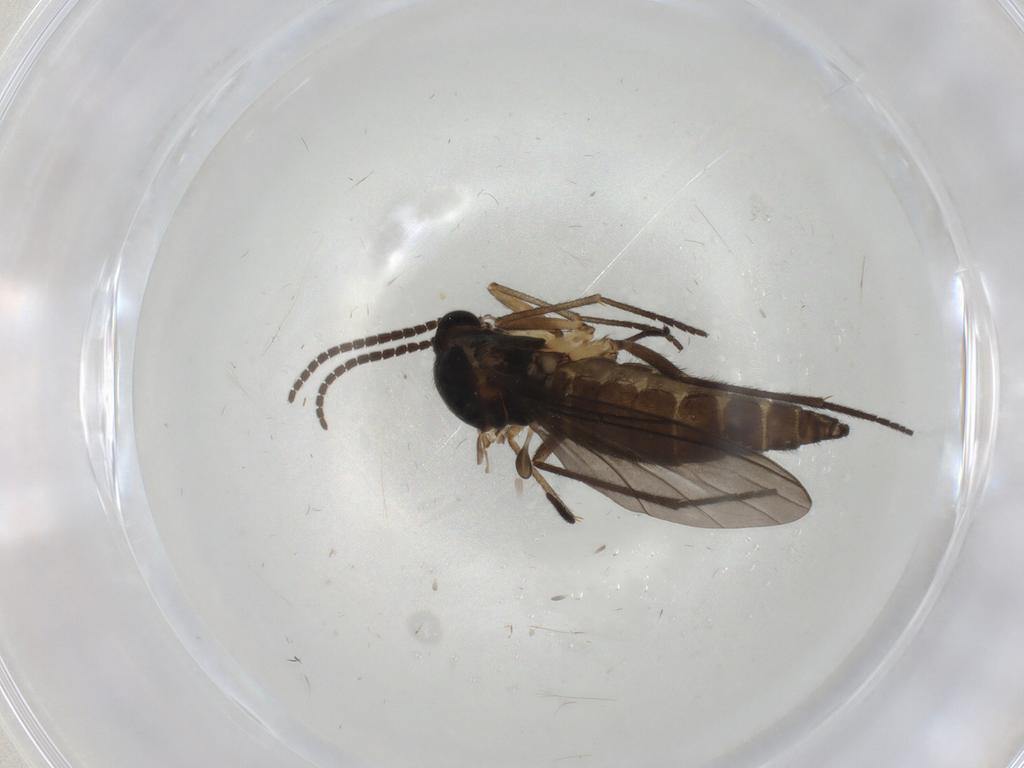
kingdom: Animalia
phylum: Arthropoda
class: Insecta
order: Diptera
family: Sciaridae
